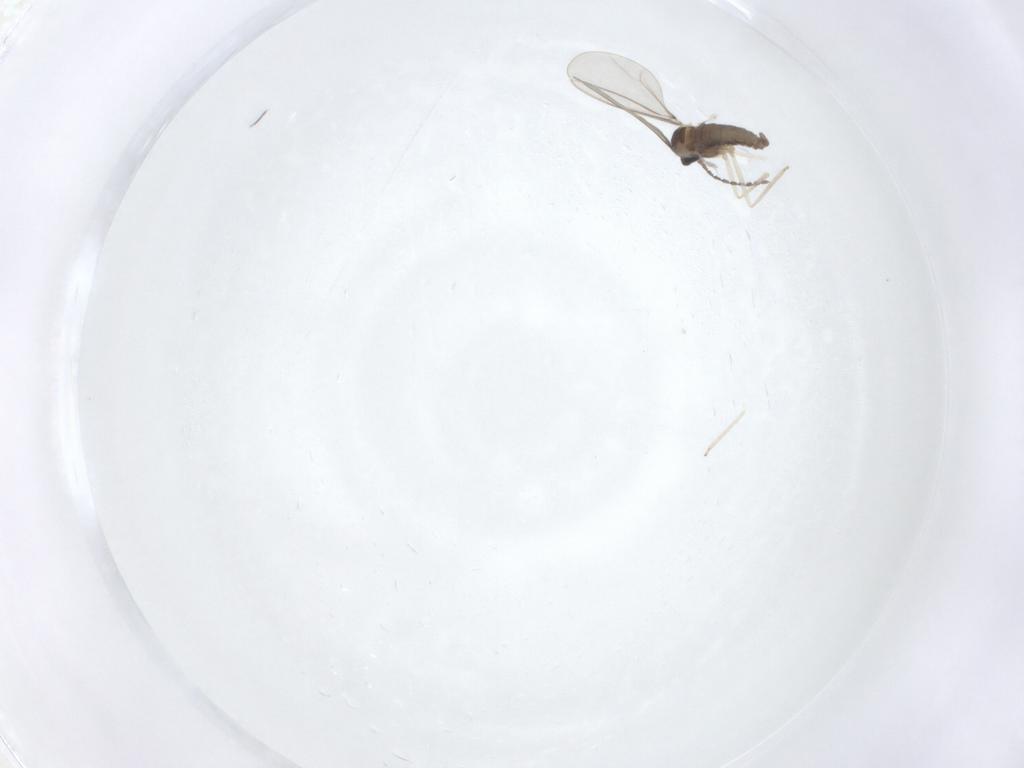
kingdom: Animalia
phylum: Arthropoda
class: Insecta
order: Diptera
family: Cecidomyiidae
